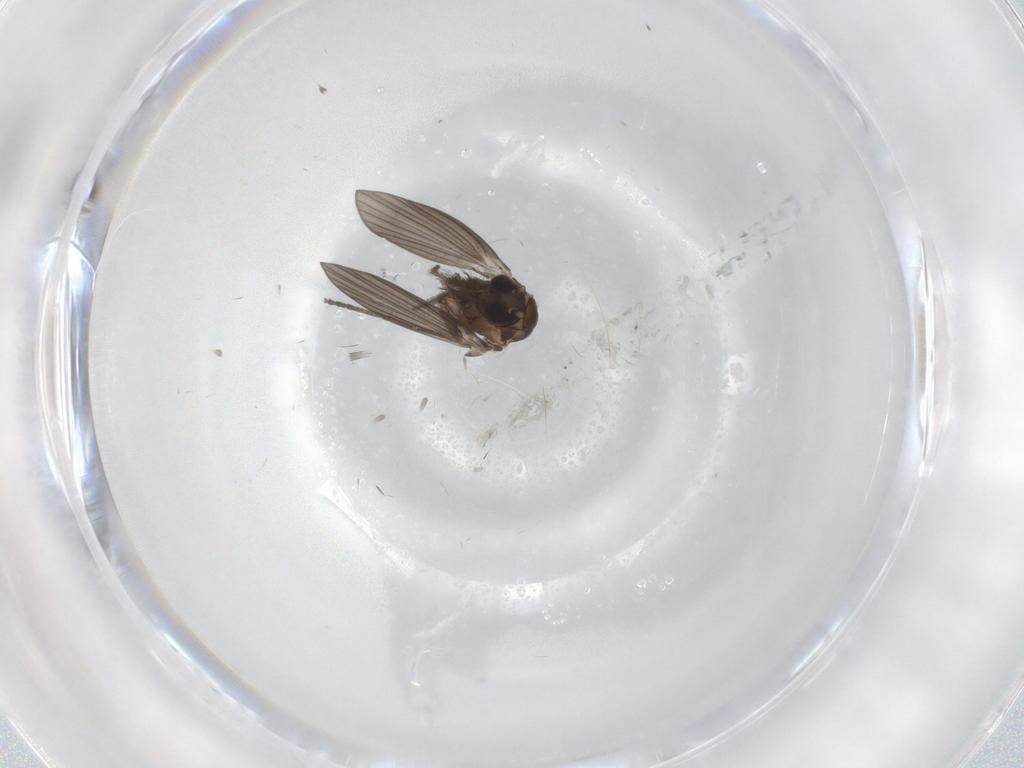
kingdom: Animalia
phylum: Arthropoda
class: Insecta
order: Diptera
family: Psychodidae
